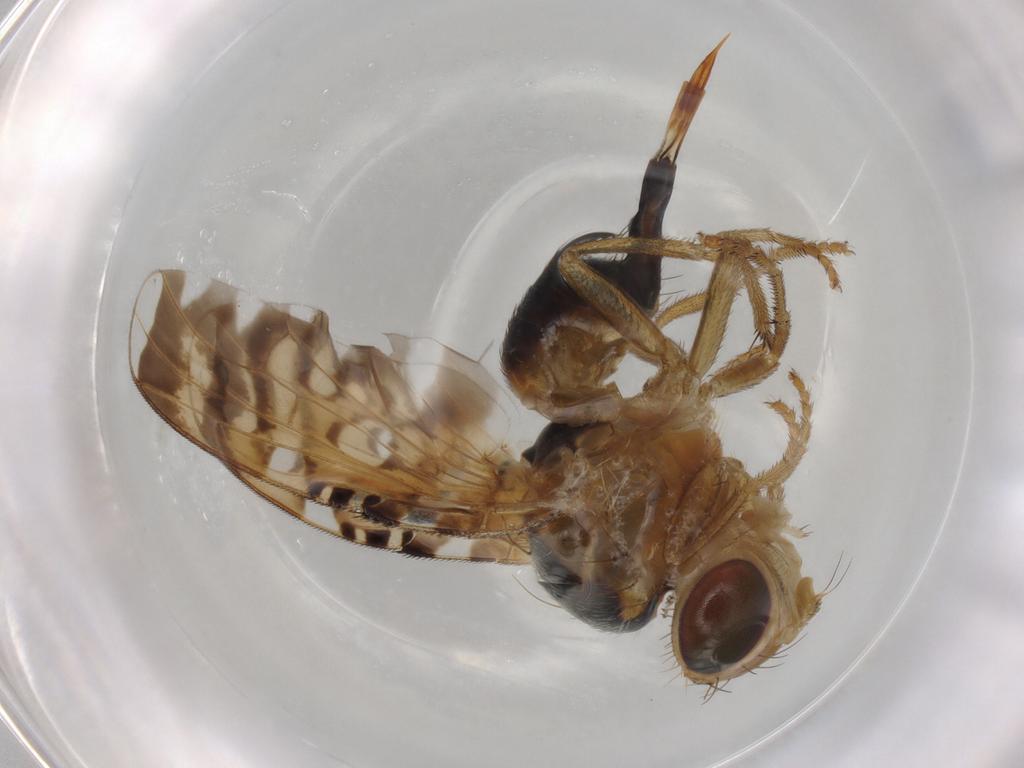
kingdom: Animalia
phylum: Arthropoda
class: Insecta
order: Diptera
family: Tephritidae
